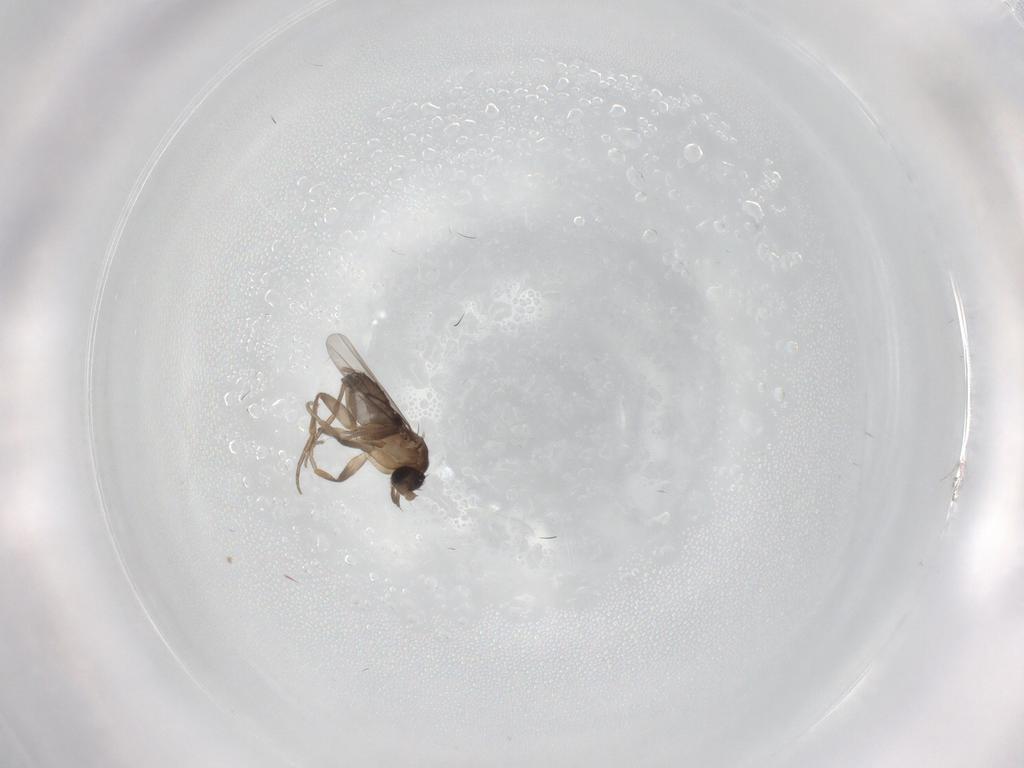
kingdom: Animalia
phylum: Arthropoda
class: Insecta
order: Diptera
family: Phoridae
